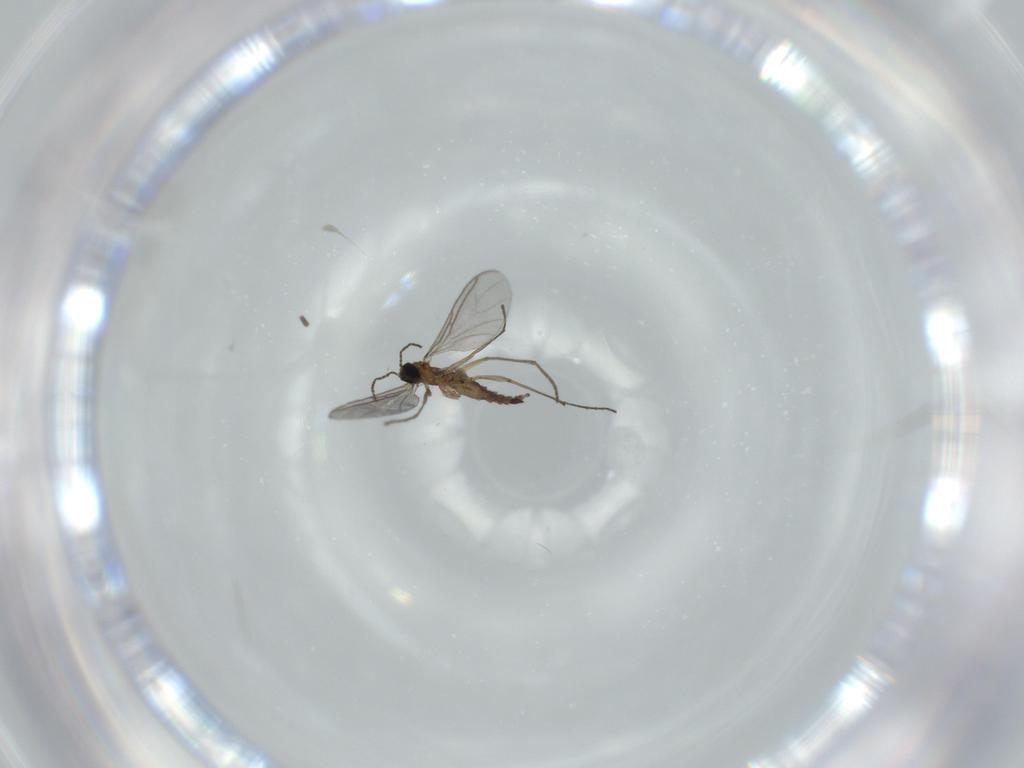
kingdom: Animalia
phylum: Arthropoda
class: Insecta
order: Diptera
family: Sciaridae
